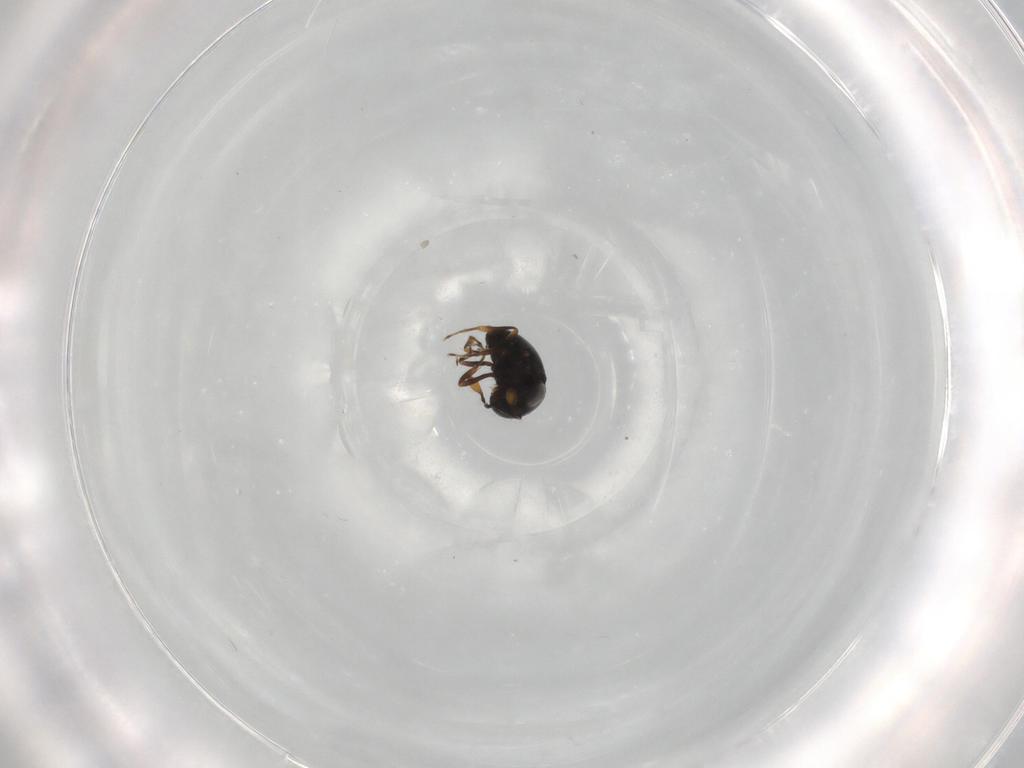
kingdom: Animalia
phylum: Arthropoda
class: Insecta
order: Hymenoptera
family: Scelionidae
